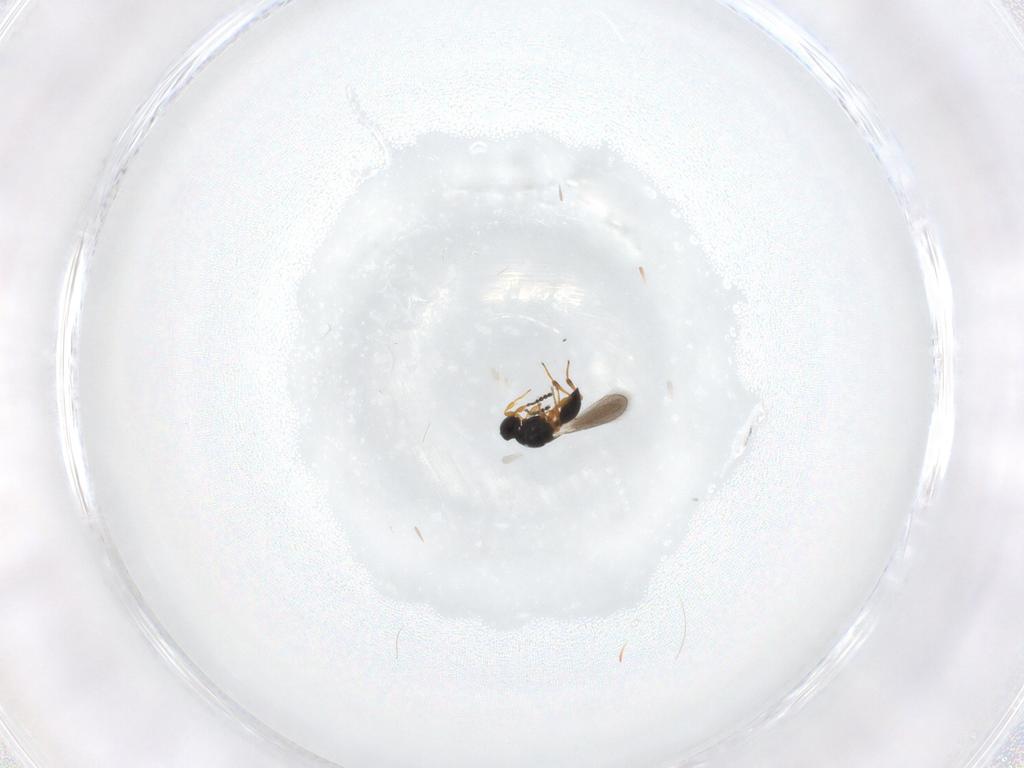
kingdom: Animalia
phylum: Arthropoda
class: Insecta
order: Hymenoptera
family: Platygastridae
